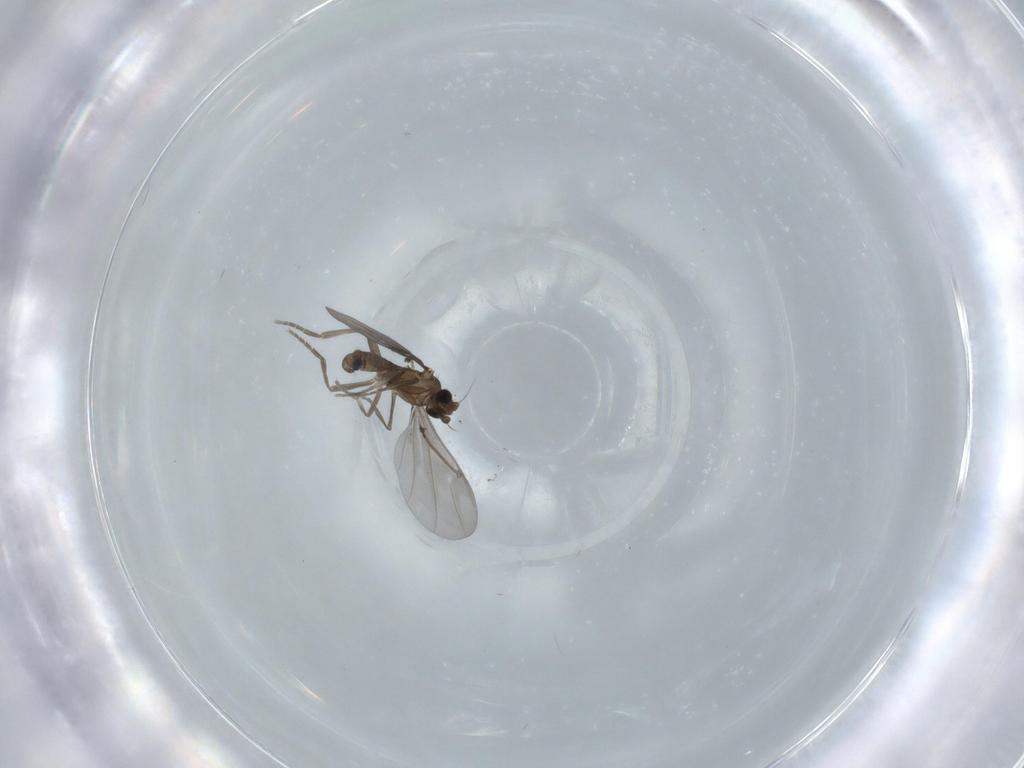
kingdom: Animalia
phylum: Arthropoda
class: Insecta
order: Diptera
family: Phoridae
